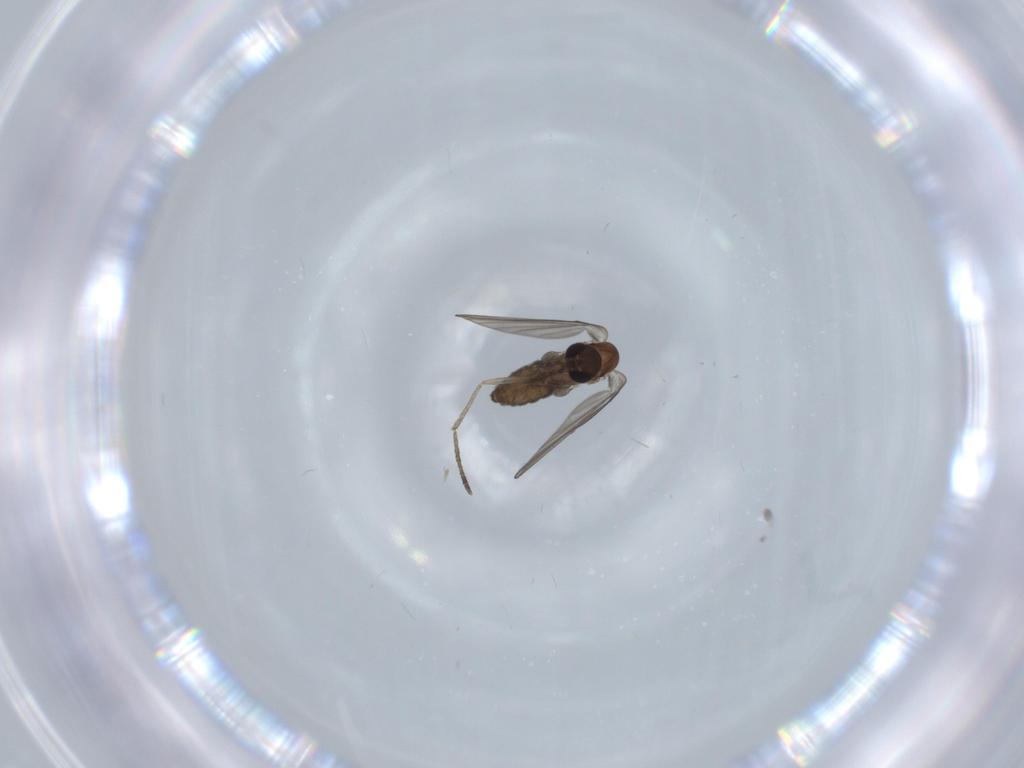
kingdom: Animalia
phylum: Arthropoda
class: Insecta
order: Diptera
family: Psychodidae
